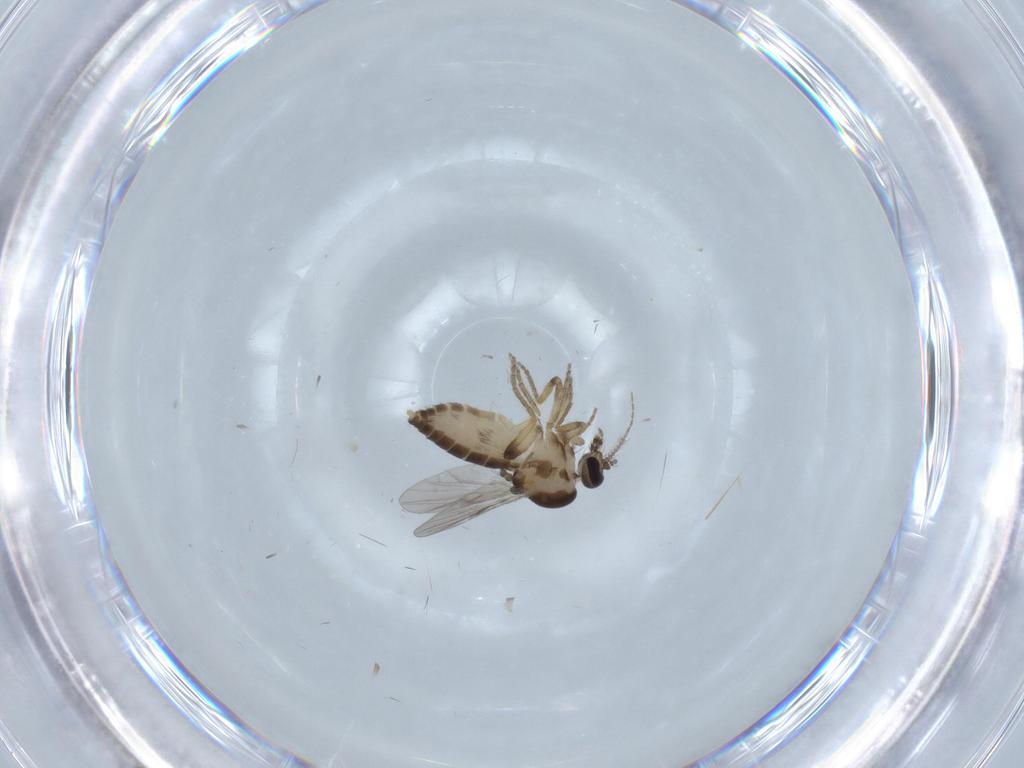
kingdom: Animalia
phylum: Arthropoda
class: Insecta
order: Diptera
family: Ceratopogonidae
